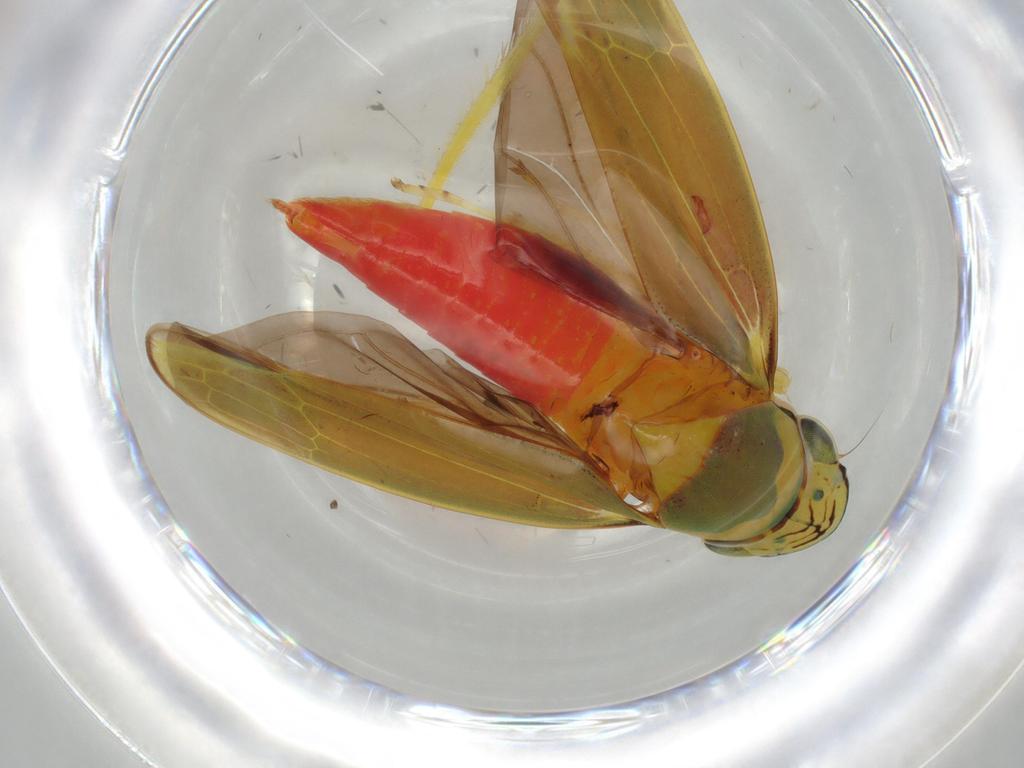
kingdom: Animalia
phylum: Arthropoda
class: Insecta
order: Hemiptera
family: Cicadellidae
